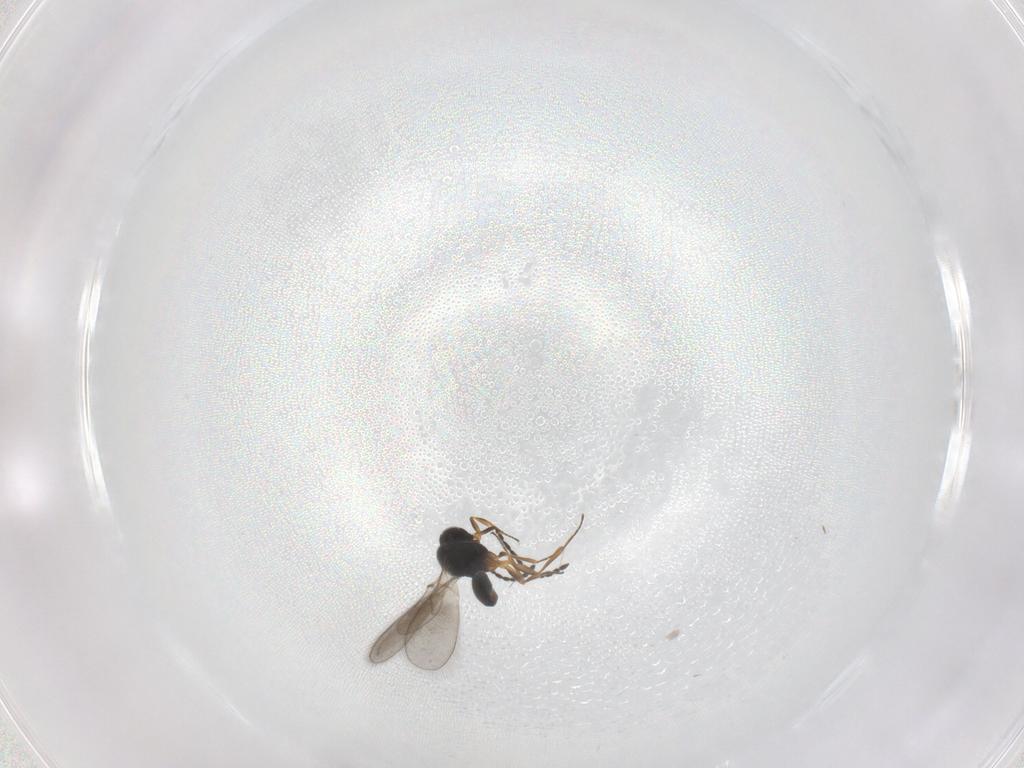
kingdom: Animalia
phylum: Arthropoda
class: Insecta
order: Hymenoptera
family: Scelionidae
